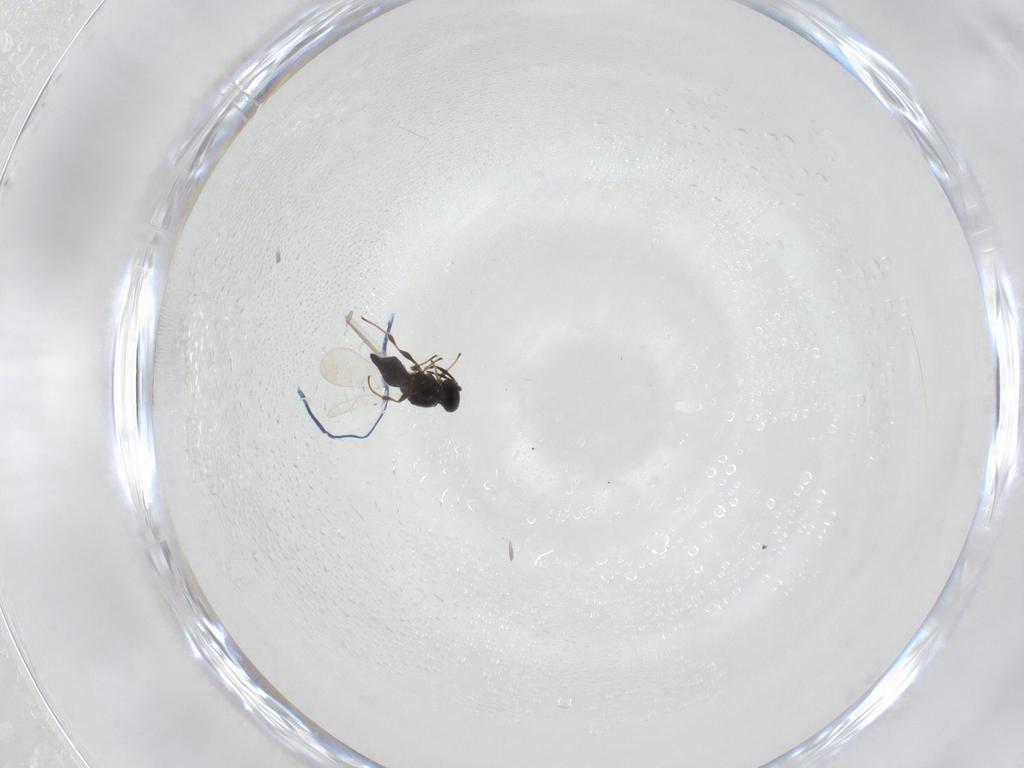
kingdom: Animalia
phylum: Arthropoda
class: Insecta
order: Hymenoptera
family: Platygastridae
